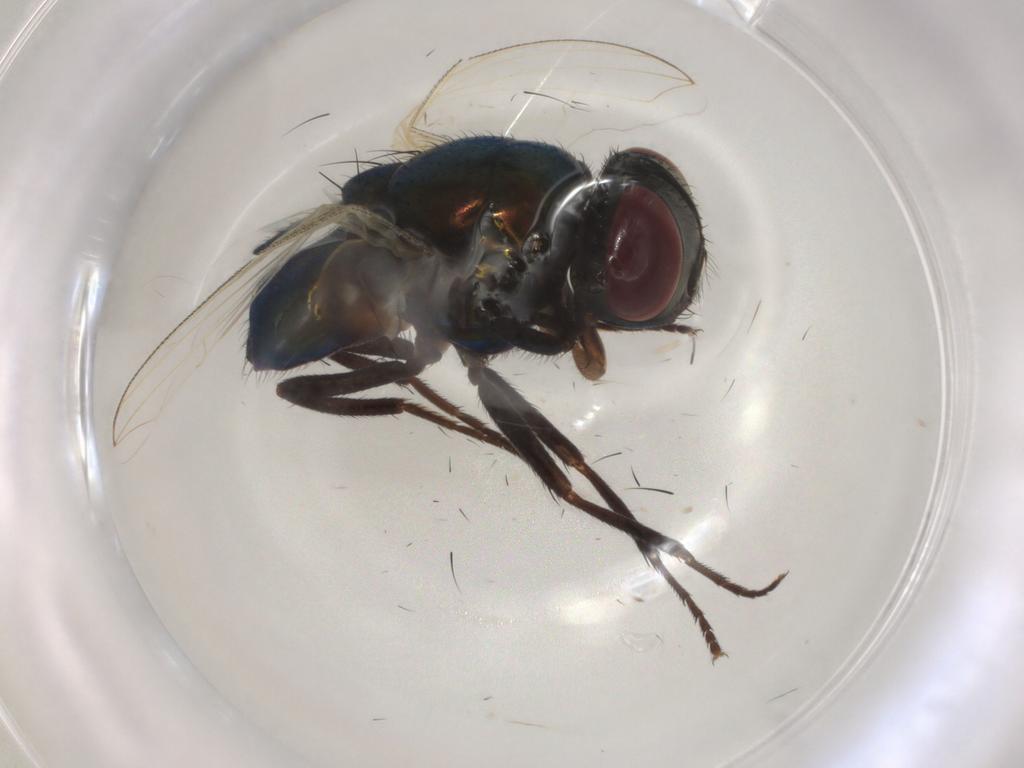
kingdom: Animalia
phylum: Arthropoda
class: Insecta
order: Diptera
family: Muscidae
